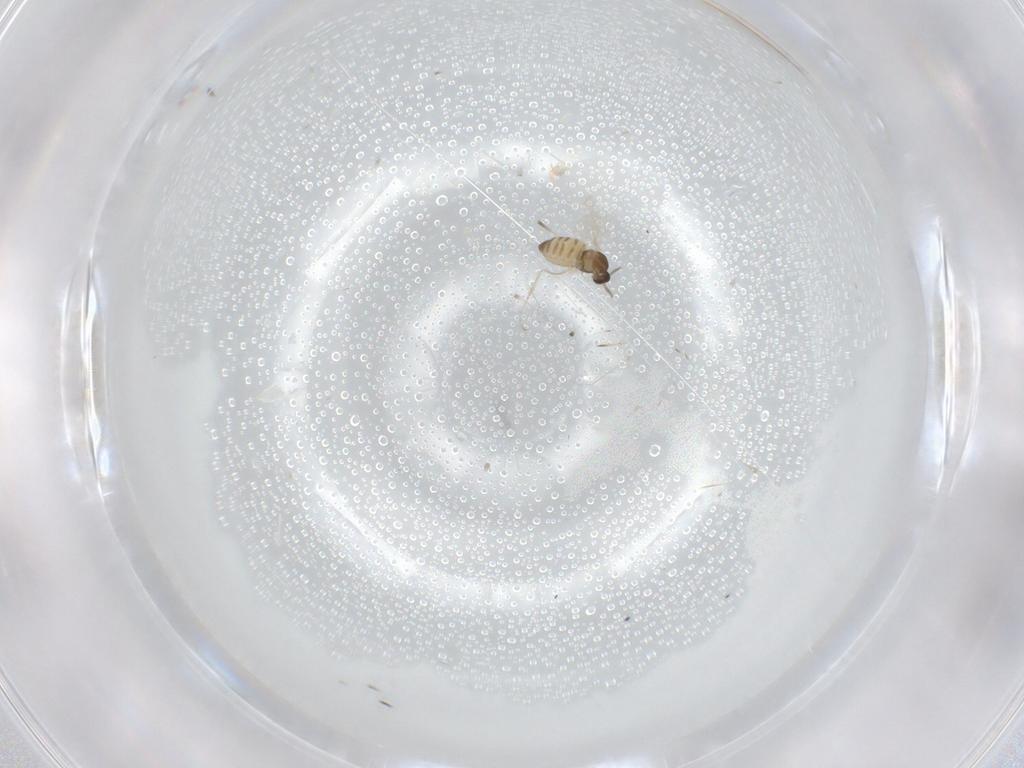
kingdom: Animalia
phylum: Arthropoda
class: Insecta
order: Diptera
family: Cecidomyiidae
